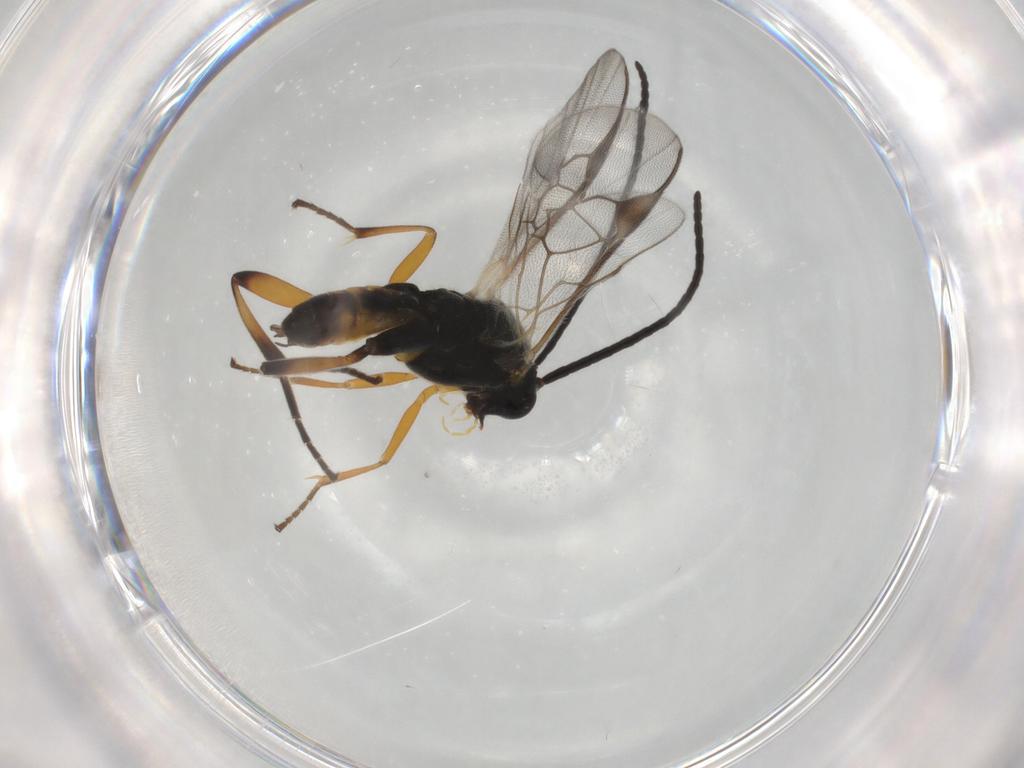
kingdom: Animalia
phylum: Arthropoda
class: Insecta
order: Hymenoptera
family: Braconidae
